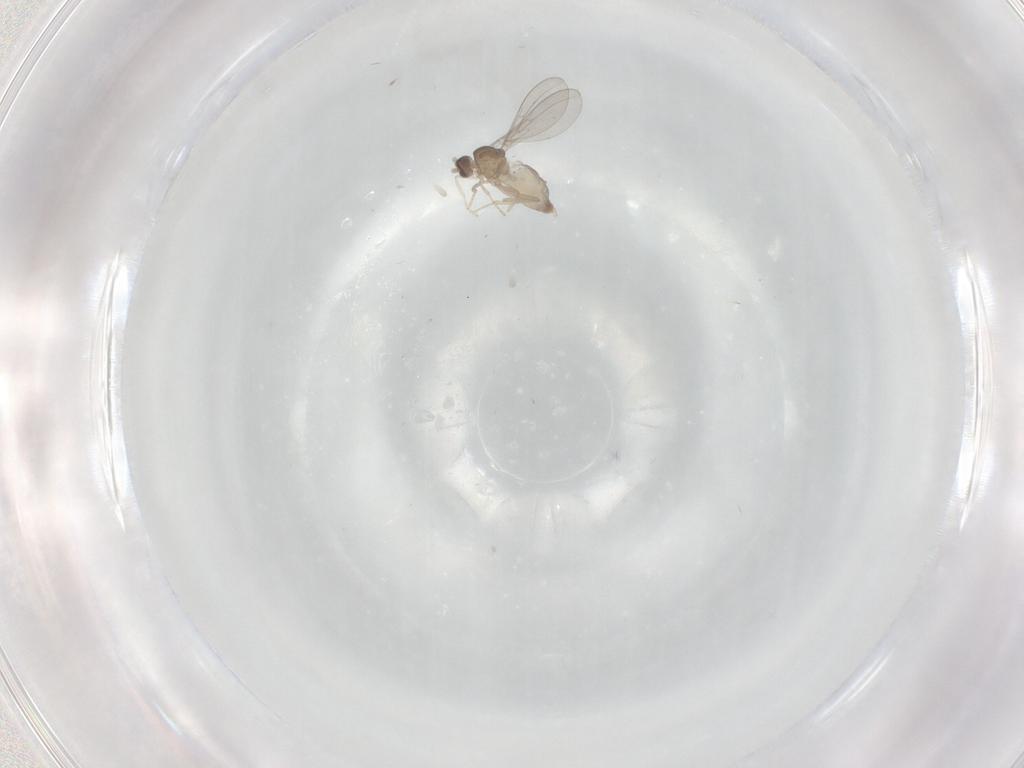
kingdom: Animalia
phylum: Arthropoda
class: Insecta
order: Diptera
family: Cecidomyiidae
